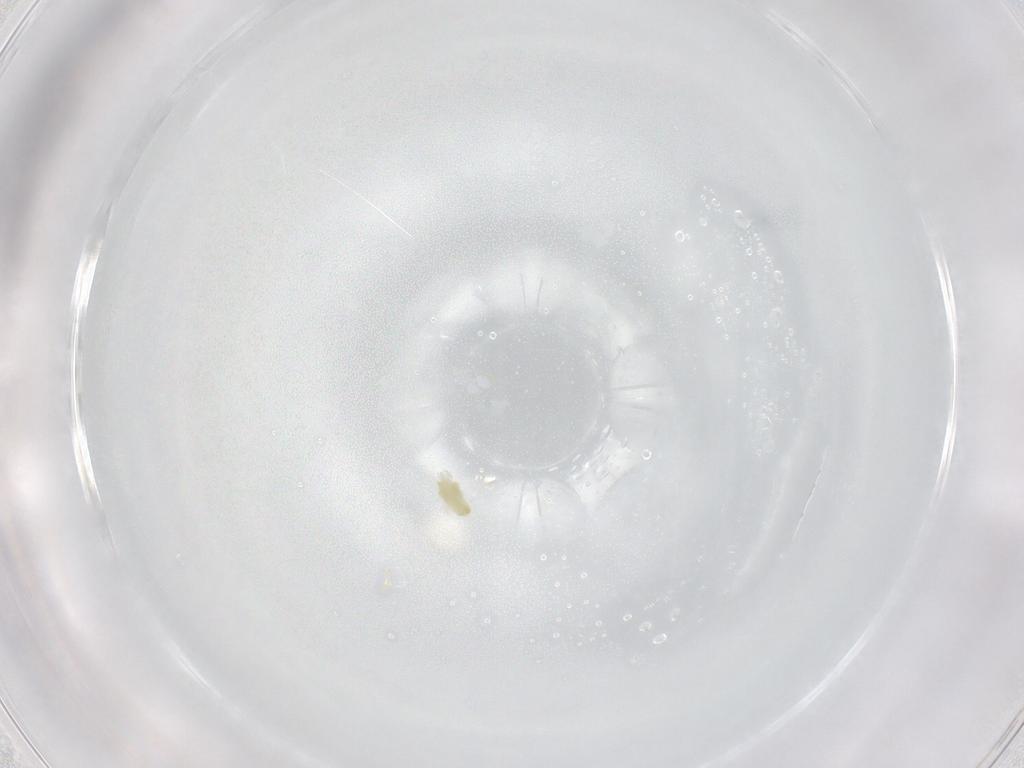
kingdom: Animalia
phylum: Arthropoda
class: Arachnida
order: Trombidiformes
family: Eupodidae
